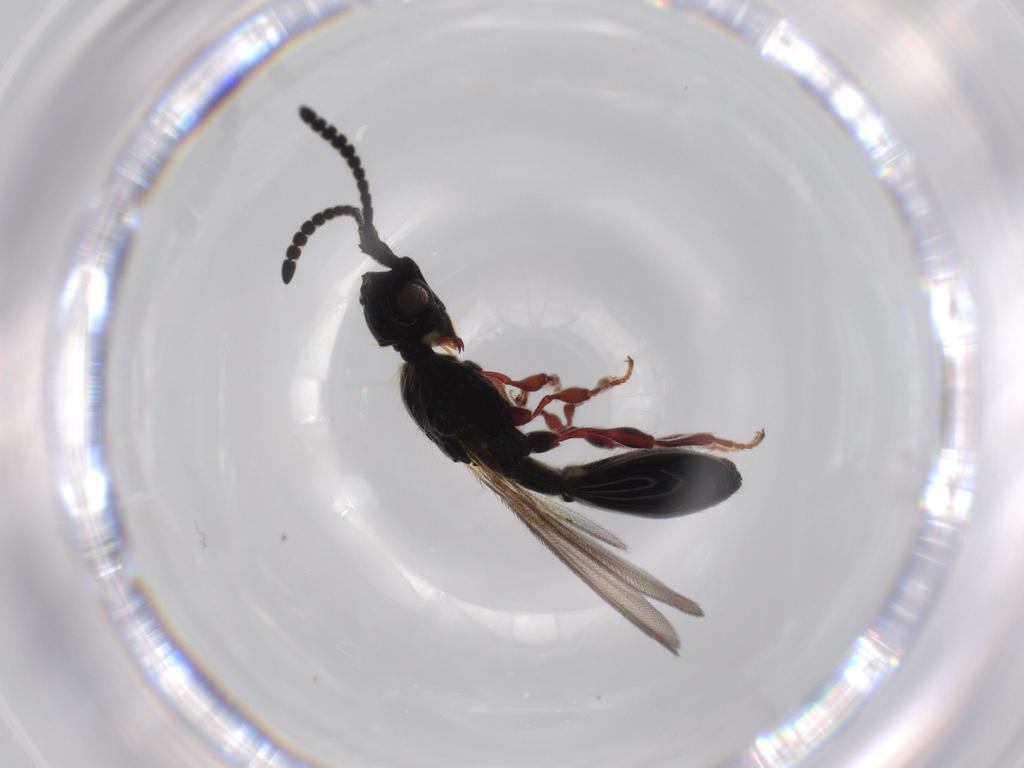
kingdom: Animalia
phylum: Arthropoda
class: Insecta
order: Hymenoptera
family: Diapriidae
